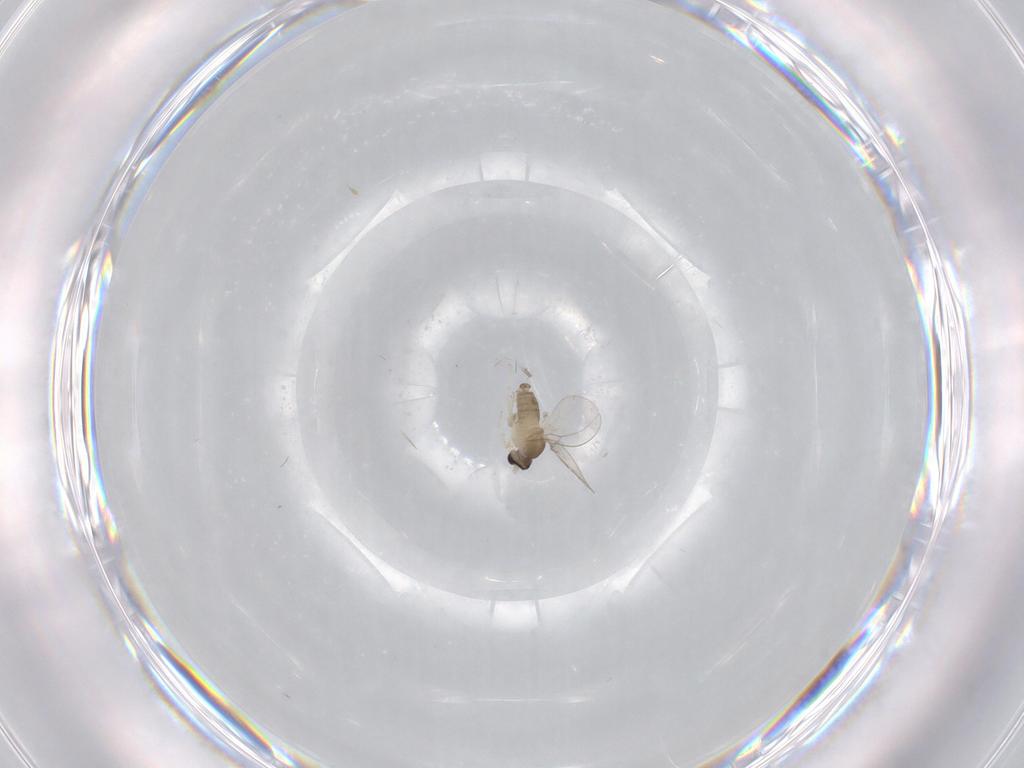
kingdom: Animalia
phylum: Arthropoda
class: Insecta
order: Diptera
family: Cecidomyiidae
